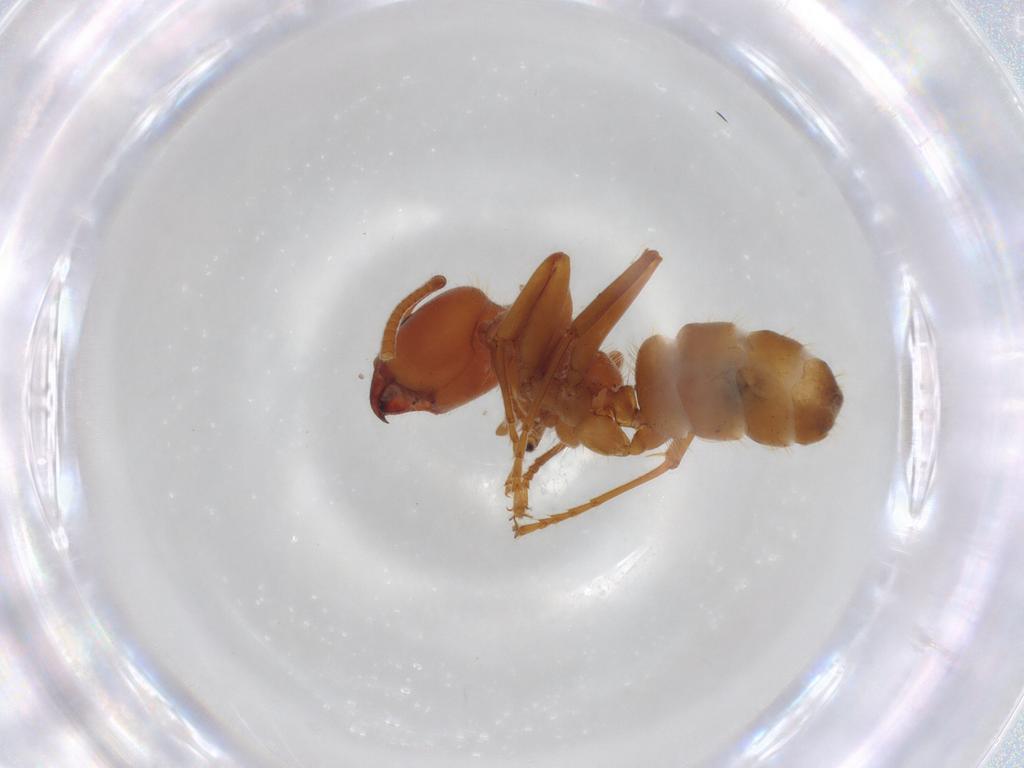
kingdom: Animalia
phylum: Arthropoda
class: Insecta
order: Hymenoptera
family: Formicidae
